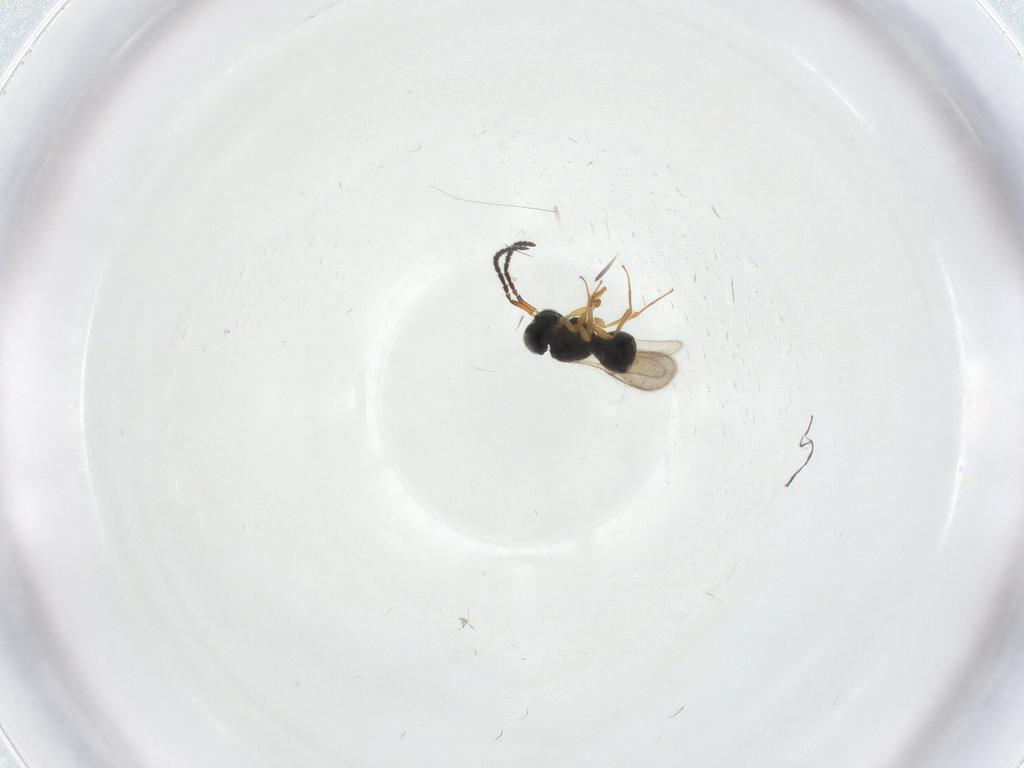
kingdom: Animalia
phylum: Arthropoda
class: Insecta
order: Hymenoptera
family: Scelionidae
